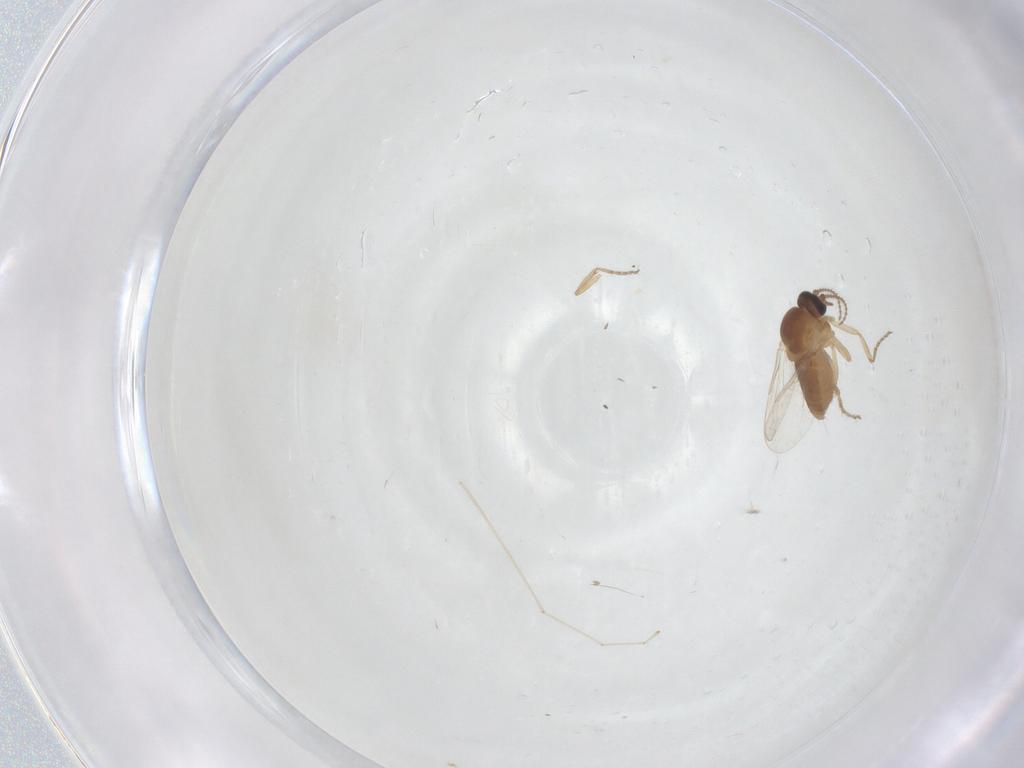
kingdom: Animalia
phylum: Arthropoda
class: Insecta
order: Diptera
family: Ceratopogonidae
